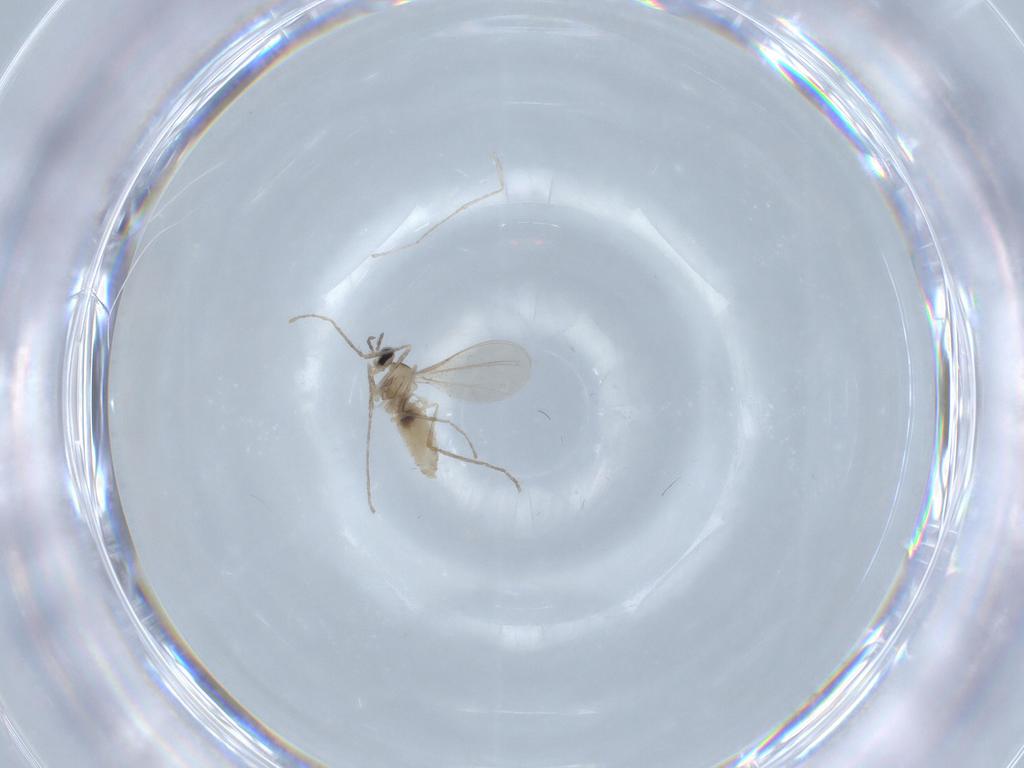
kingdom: Animalia
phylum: Arthropoda
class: Insecta
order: Diptera
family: Cecidomyiidae
